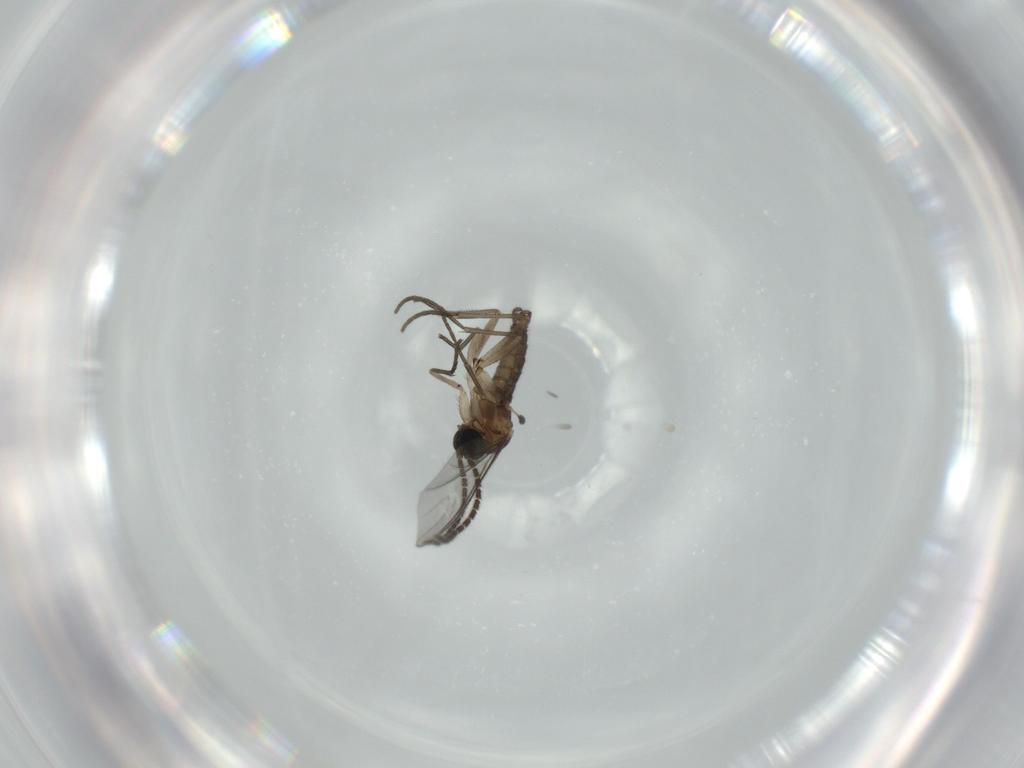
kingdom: Animalia
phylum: Arthropoda
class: Insecta
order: Diptera
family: Sciaridae
